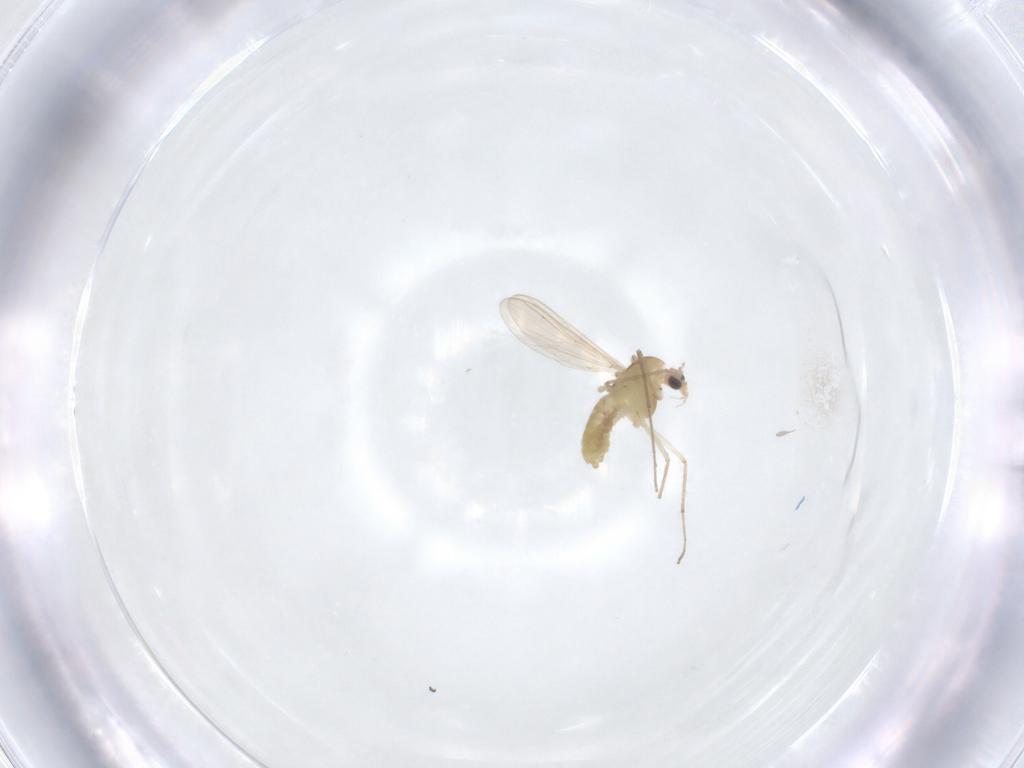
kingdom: Animalia
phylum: Arthropoda
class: Insecta
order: Diptera
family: Chironomidae
